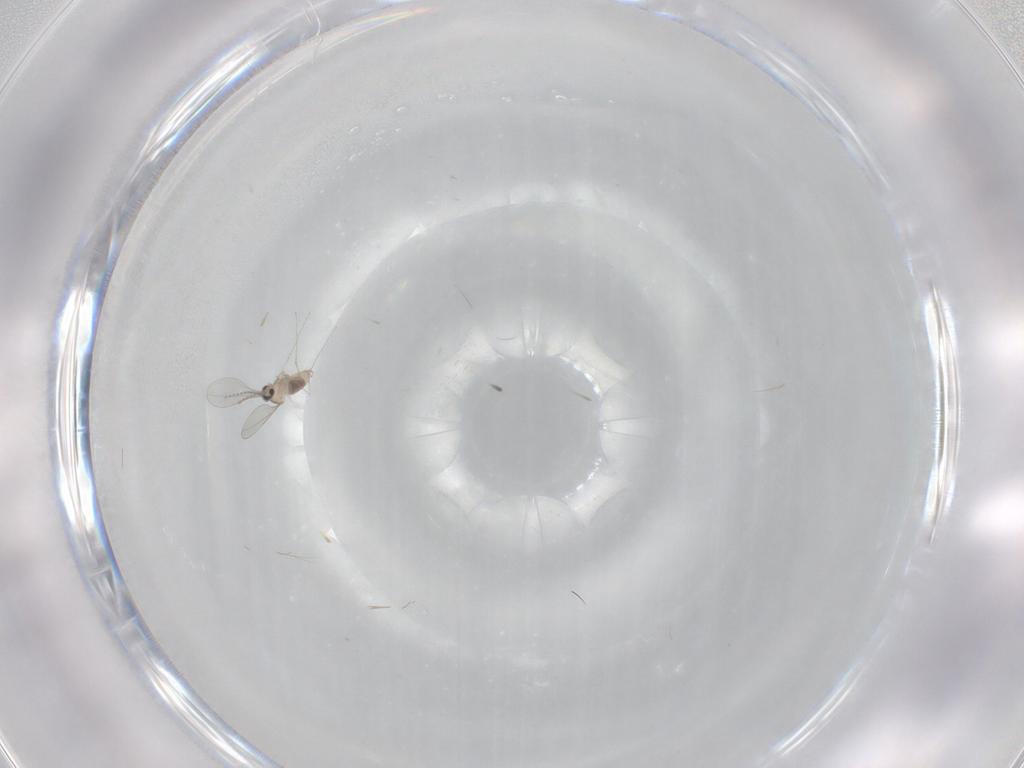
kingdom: Animalia
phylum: Arthropoda
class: Insecta
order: Diptera
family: Cecidomyiidae
